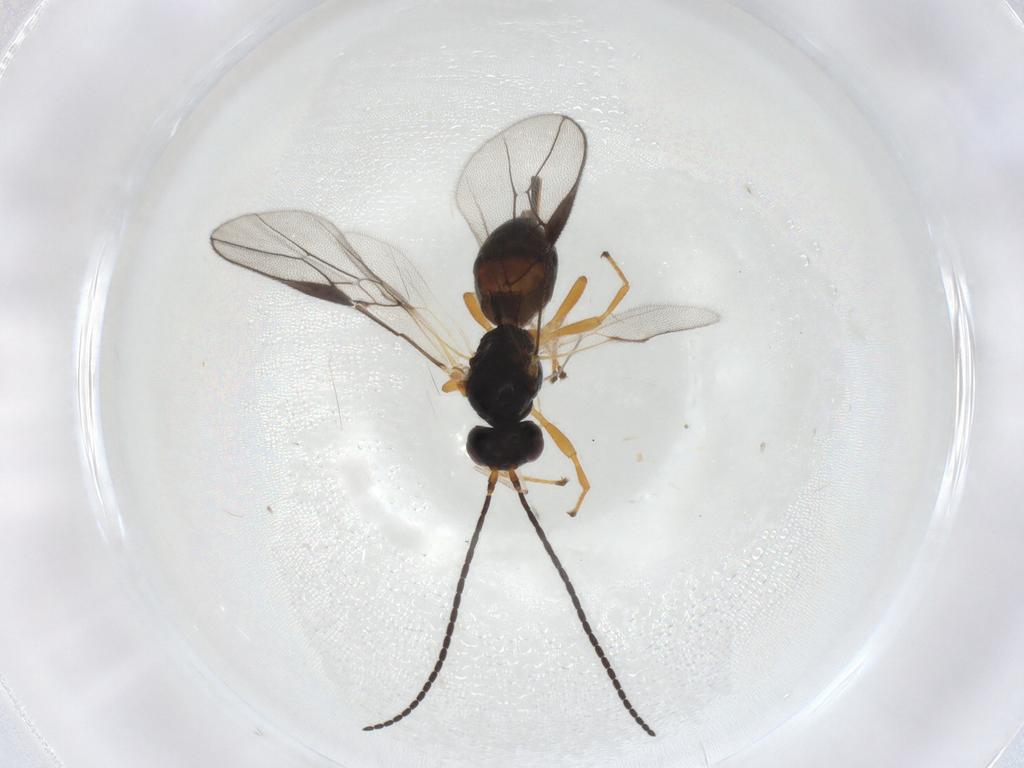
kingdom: Animalia
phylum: Arthropoda
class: Insecta
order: Hymenoptera
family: Braconidae
